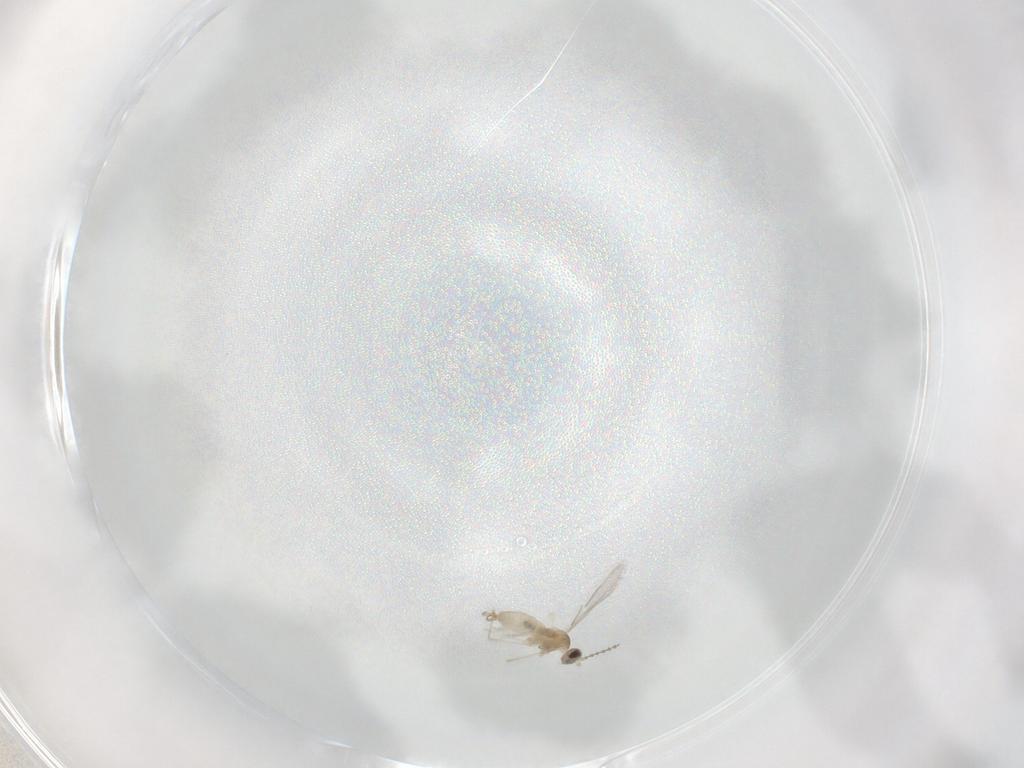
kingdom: Animalia
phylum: Arthropoda
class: Insecta
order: Diptera
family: Cecidomyiidae
